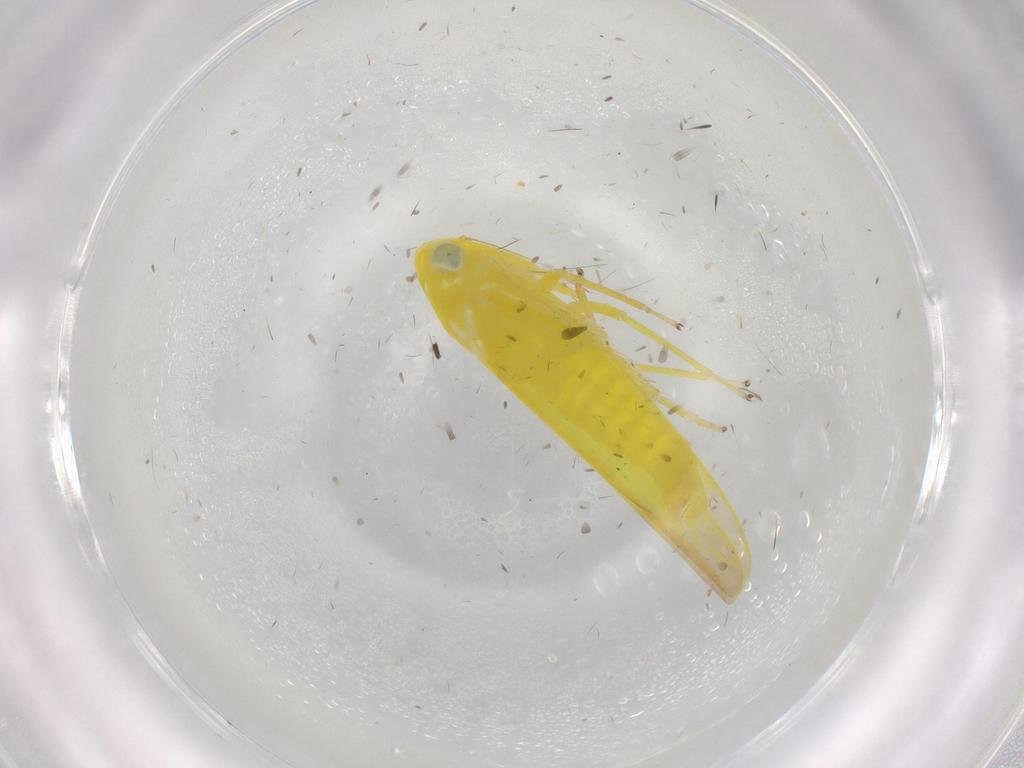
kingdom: Animalia
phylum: Arthropoda
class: Insecta
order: Hemiptera
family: Cicadellidae
